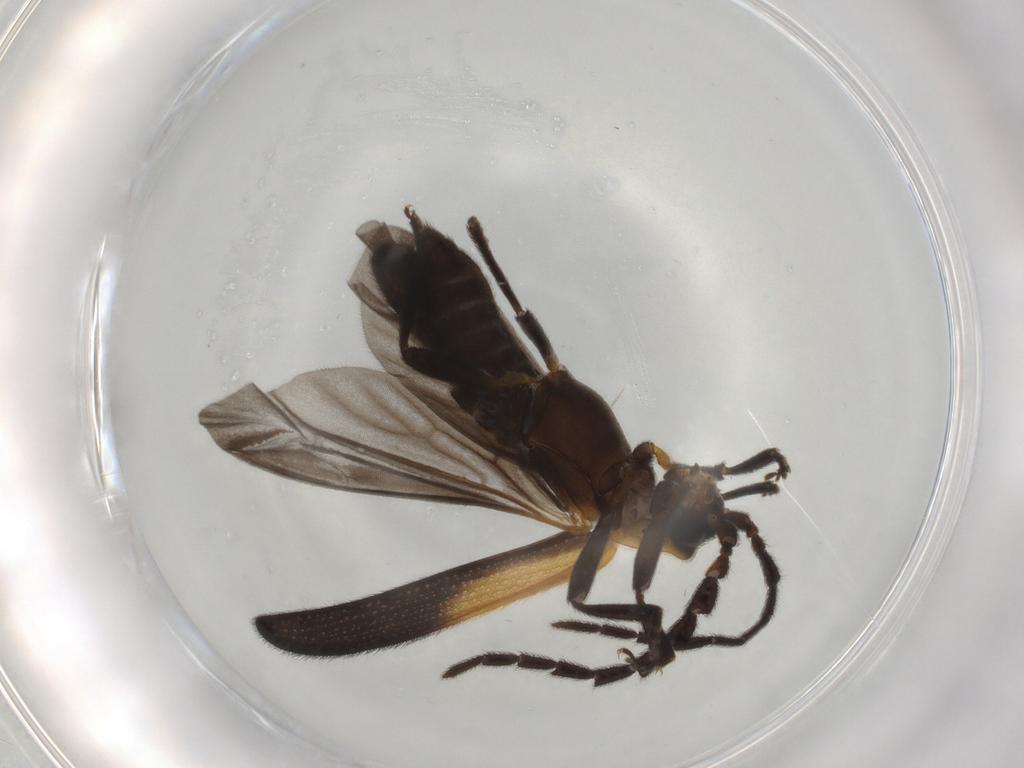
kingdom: Animalia
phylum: Arthropoda
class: Insecta
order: Coleoptera
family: Lycidae
